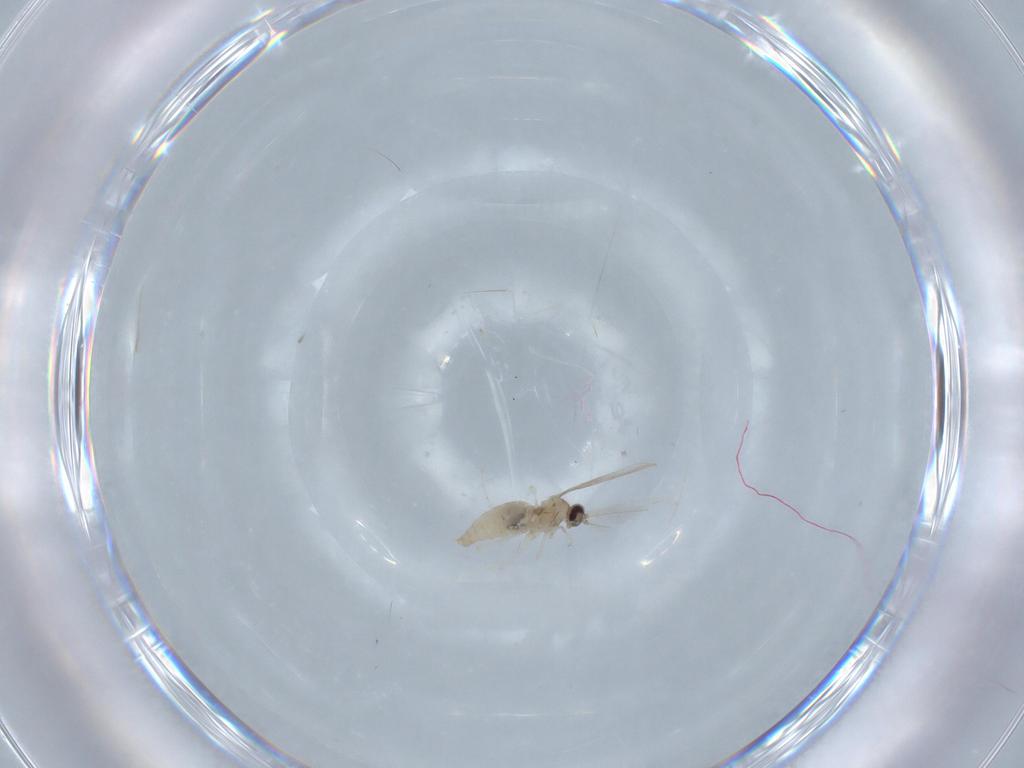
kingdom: Animalia
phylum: Arthropoda
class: Insecta
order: Diptera
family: Cecidomyiidae
